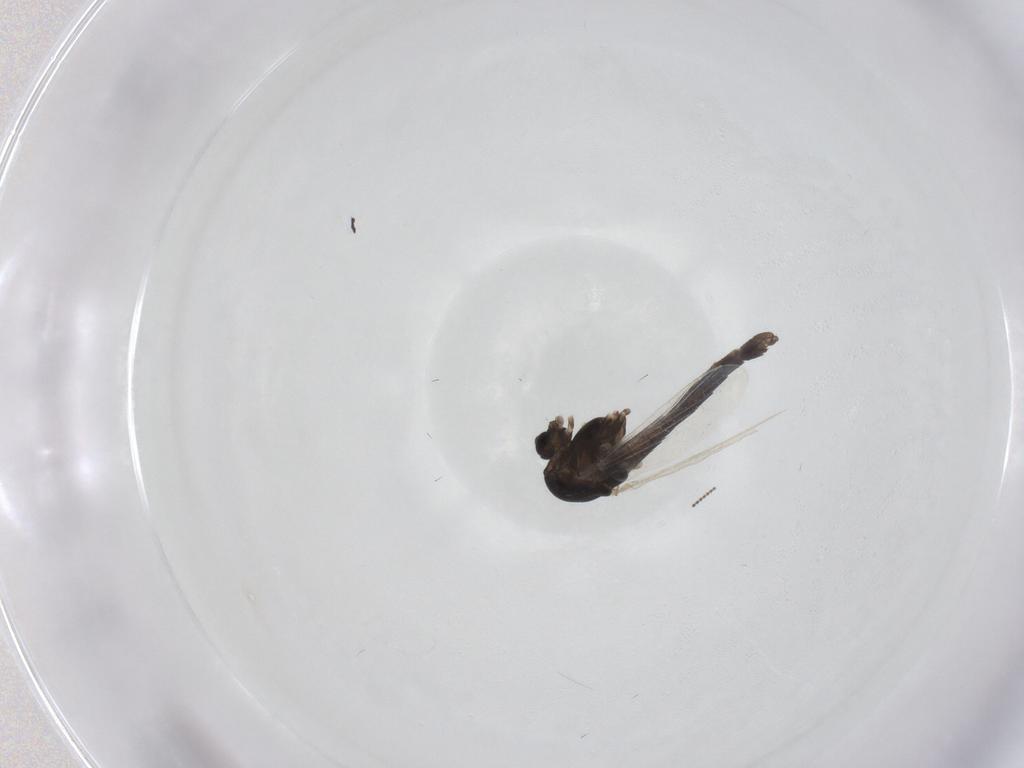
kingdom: Animalia
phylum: Arthropoda
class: Insecta
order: Diptera
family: Chironomidae
